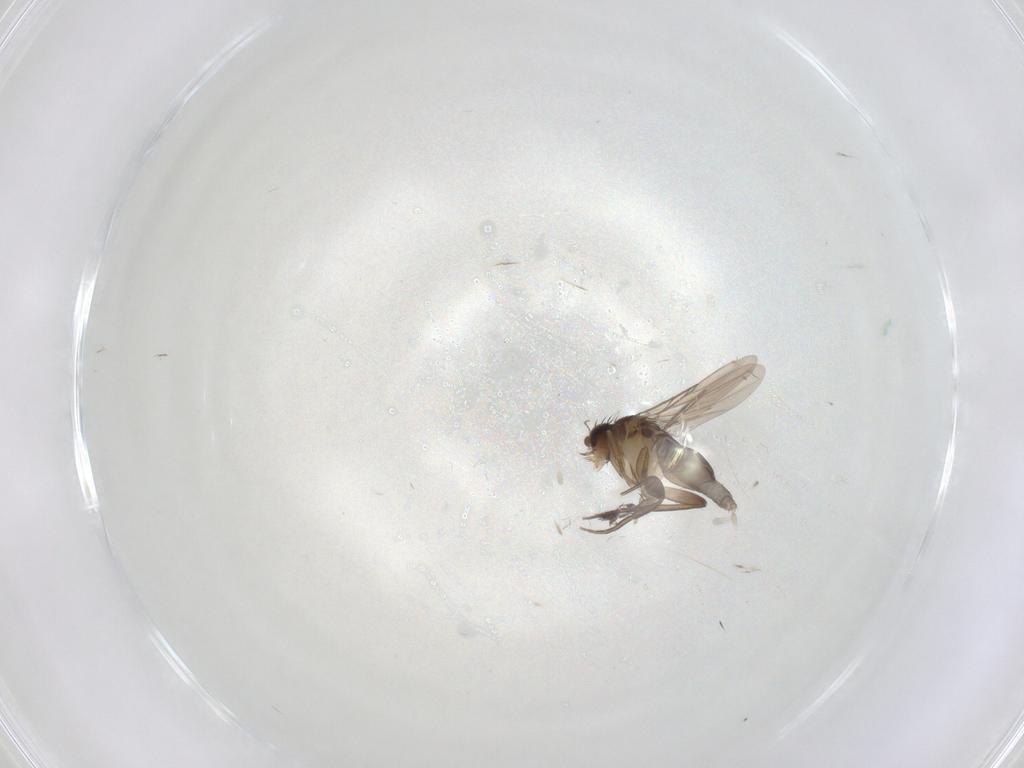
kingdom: Animalia
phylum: Arthropoda
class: Insecta
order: Diptera
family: Phoridae
